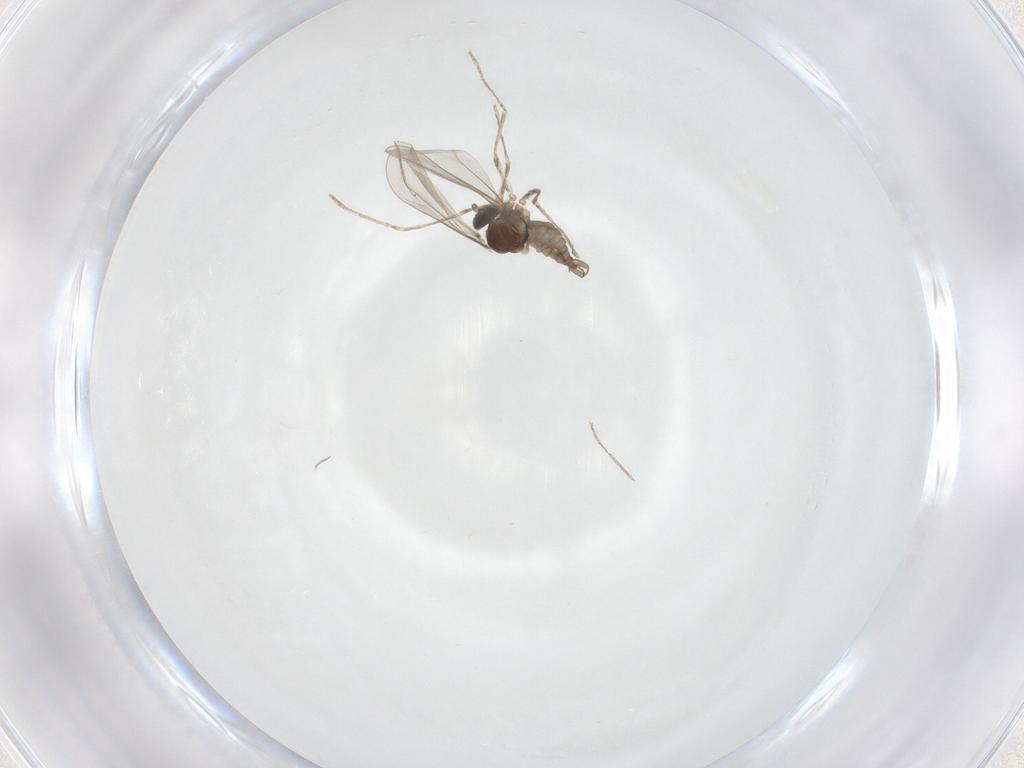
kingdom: Animalia
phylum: Arthropoda
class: Insecta
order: Diptera
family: Cecidomyiidae
